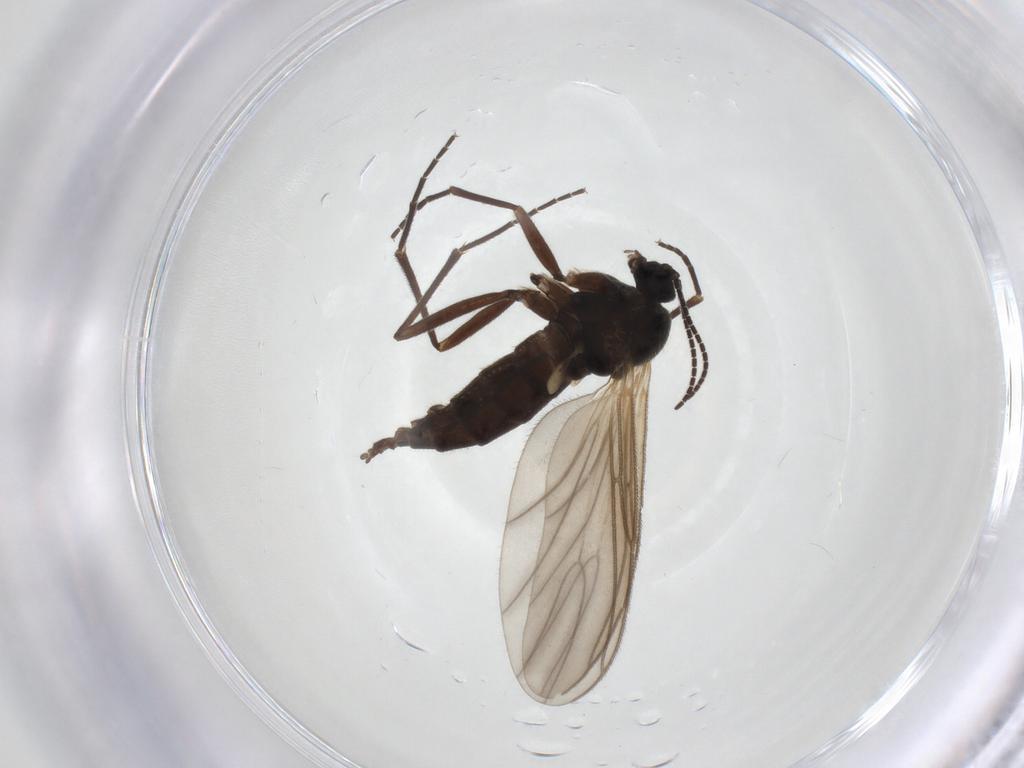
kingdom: Animalia
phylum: Arthropoda
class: Insecta
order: Diptera
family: Sciaridae
